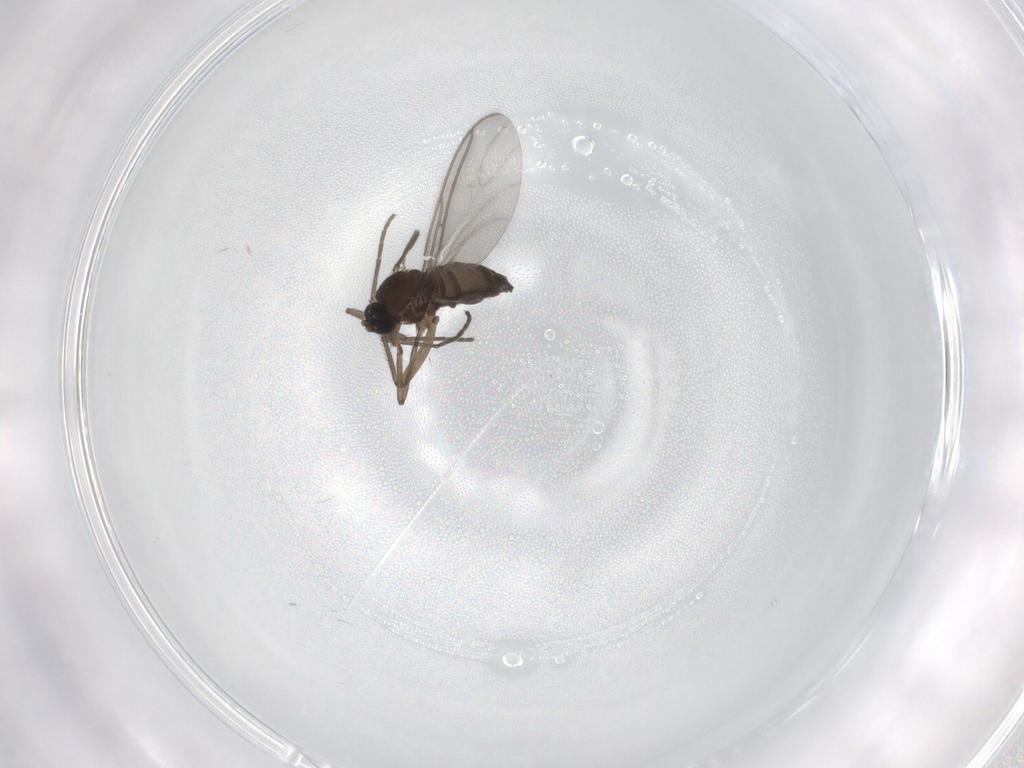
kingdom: Animalia
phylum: Arthropoda
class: Insecta
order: Diptera
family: Sciaridae
